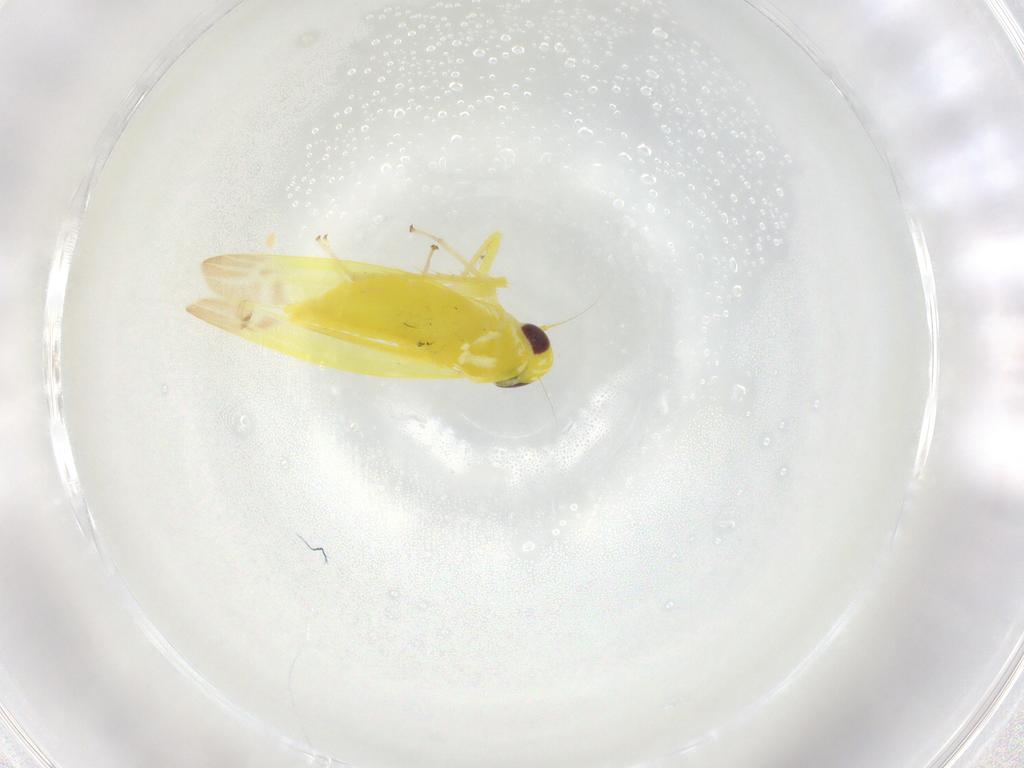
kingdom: Animalia
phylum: Arthropoda
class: Insecta
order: Hemiptera
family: Cicadellidae
